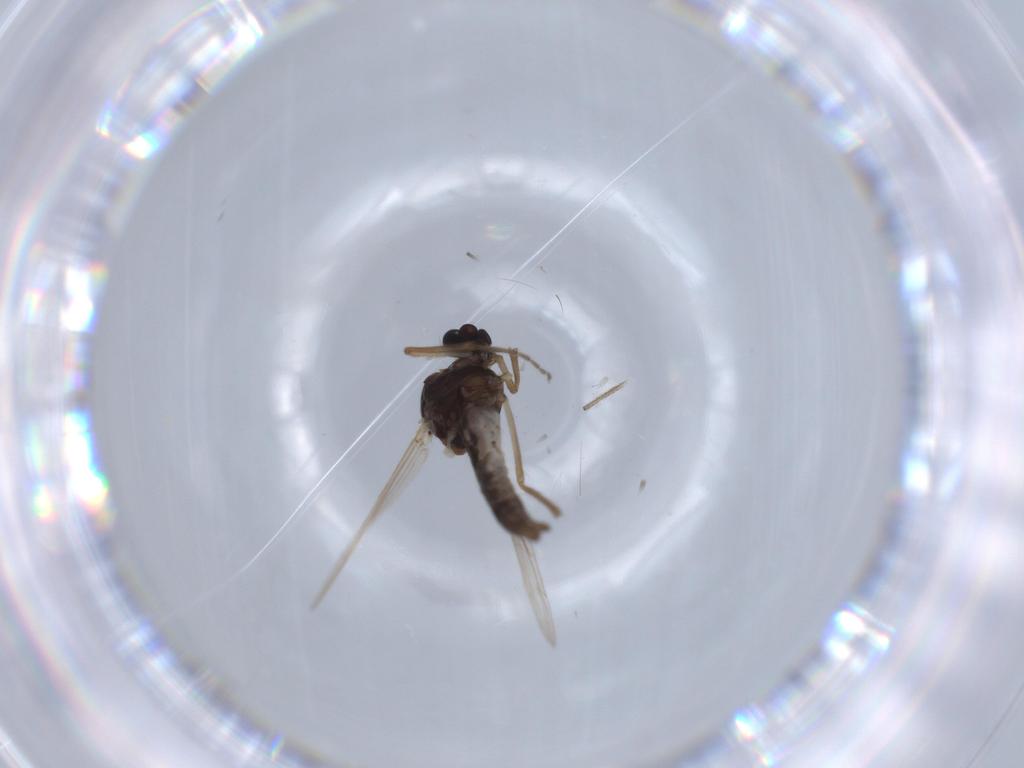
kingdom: Animalia
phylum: Arthropoda
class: Insecta
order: Diptera
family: Ceratopogonidae
